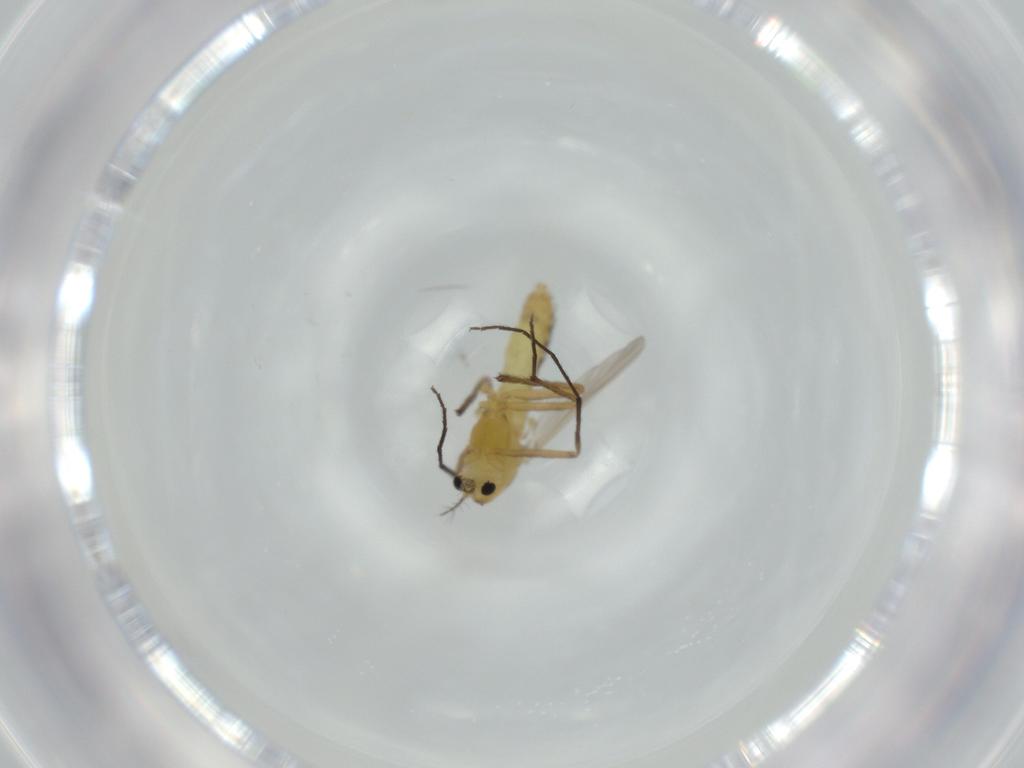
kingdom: Animalia
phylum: Arthropoda
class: Insecta
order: Diptera
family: Chironomidae
